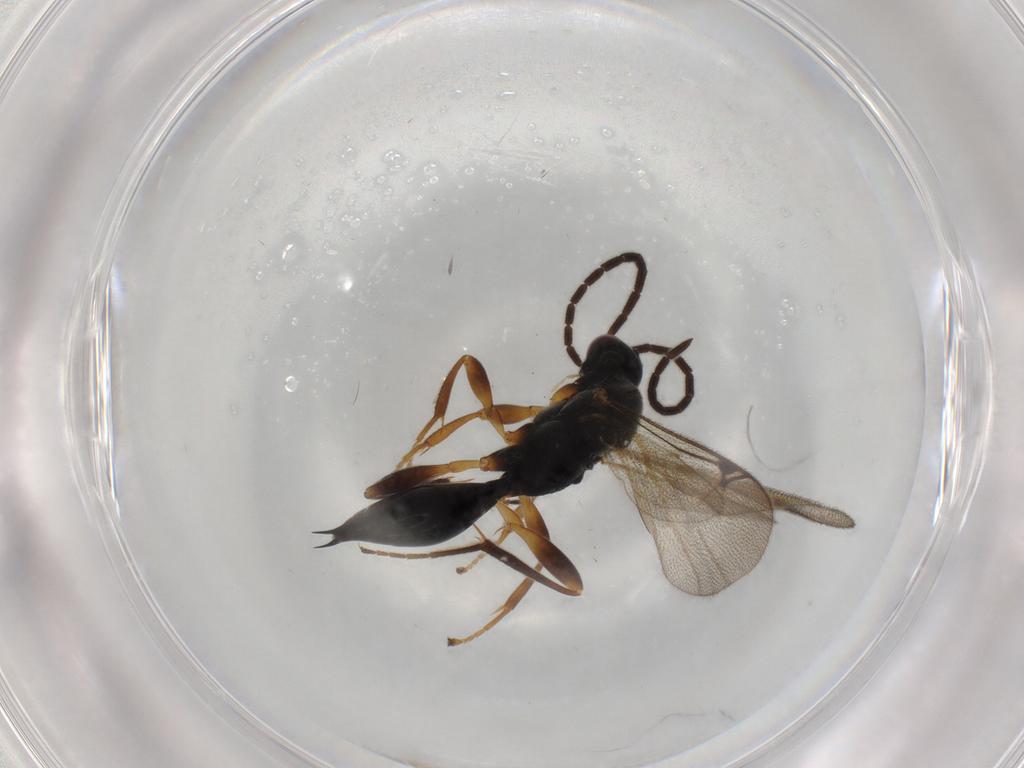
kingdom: Animalia
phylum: Arthropoda
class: Insecta
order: Hymenoptera
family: Proctotrupidae
